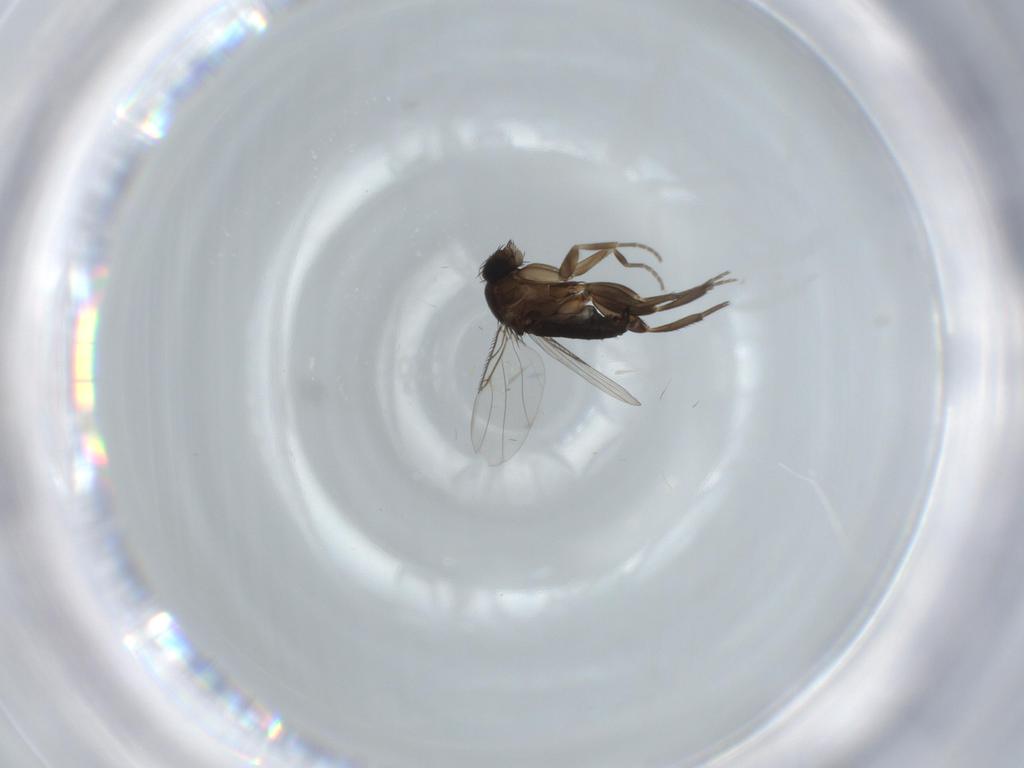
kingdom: Animalia
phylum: Arthropoda
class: Insecta
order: Diptera
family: Phoridae
